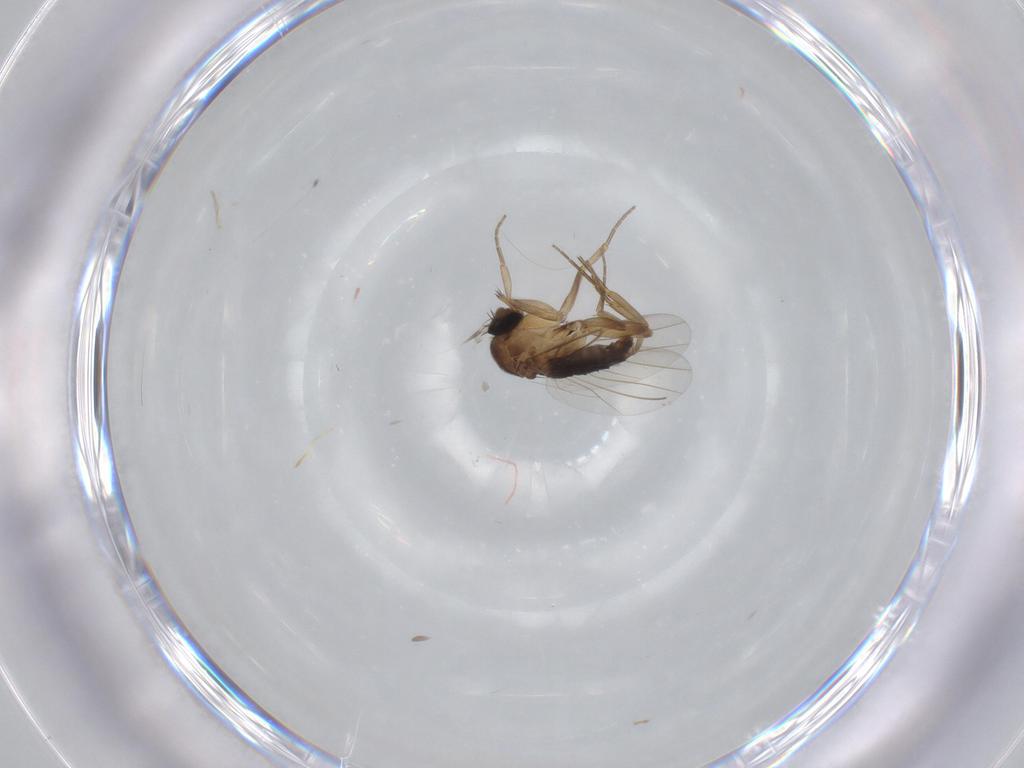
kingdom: Animalia
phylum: Arthropoda
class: Insecta
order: Diptera
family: Phoridae
